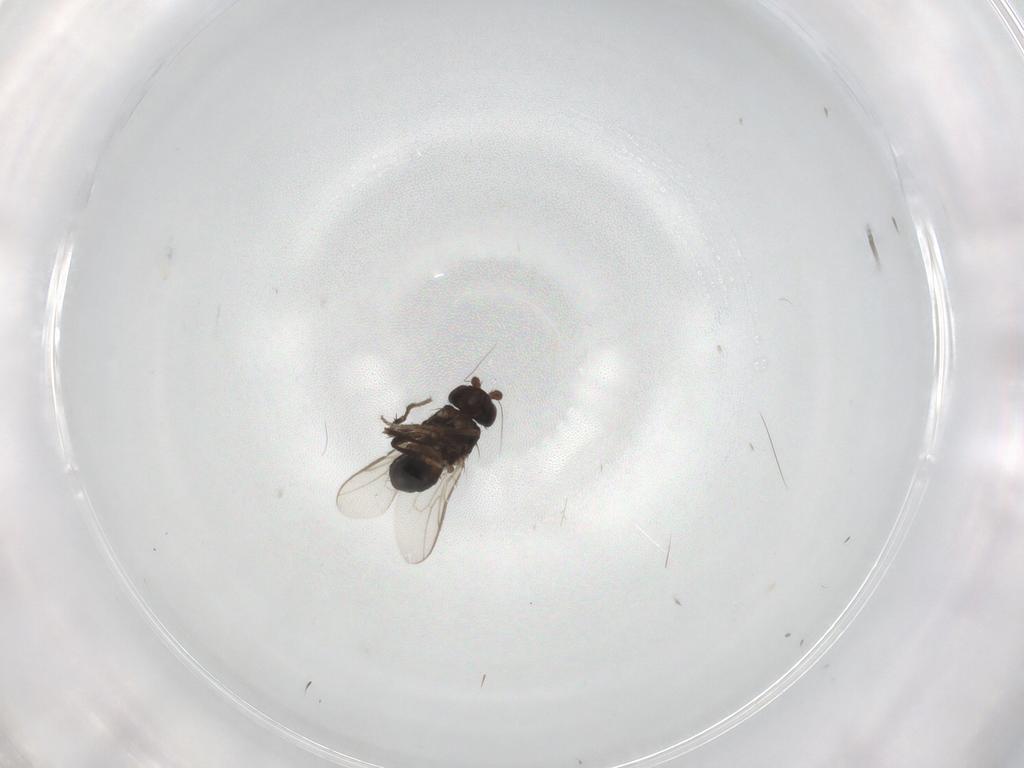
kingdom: Animalia
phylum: Arthropoda
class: Insecta
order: Diptera
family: Sphaeroceridae
